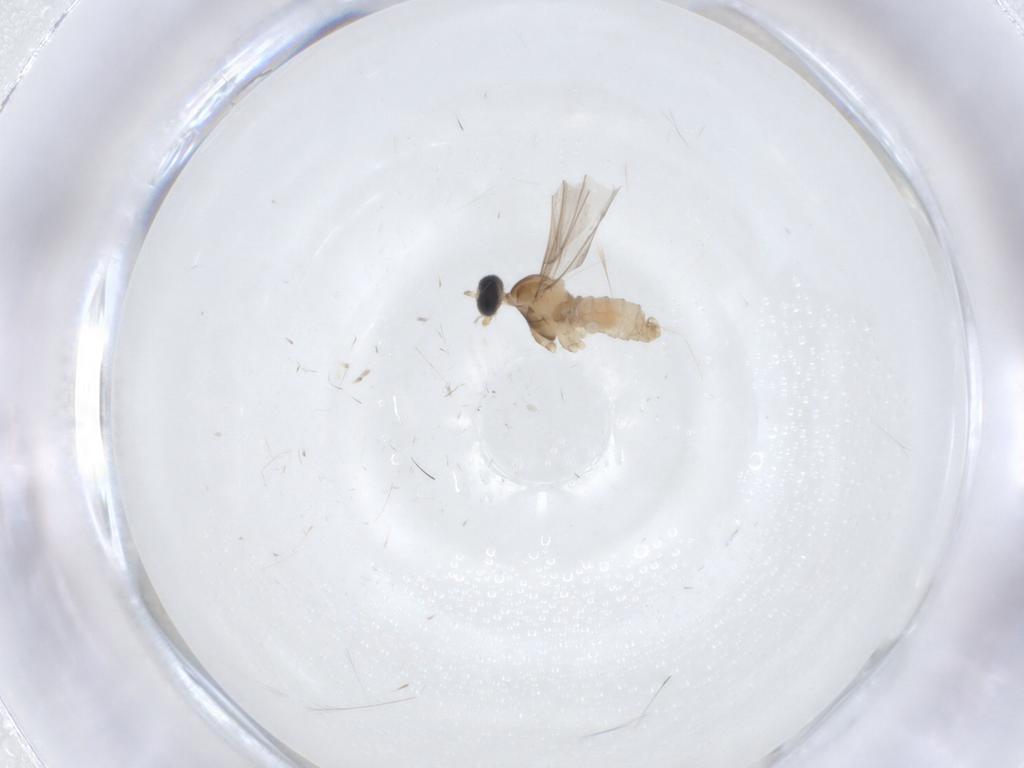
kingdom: Animalia
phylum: Arthropoda
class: Insecta
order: Diptera
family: Cecidomyiidae
